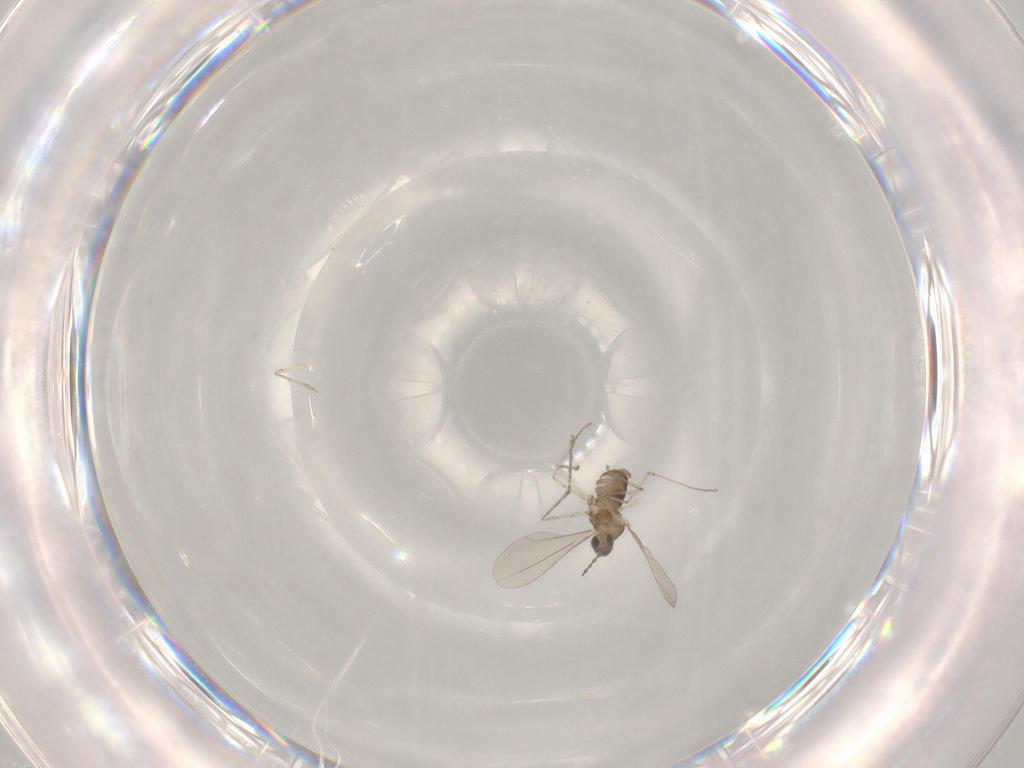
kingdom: Animalia
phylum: Arthropoda
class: Insecta
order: Diptera
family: Cecidomyiidae
